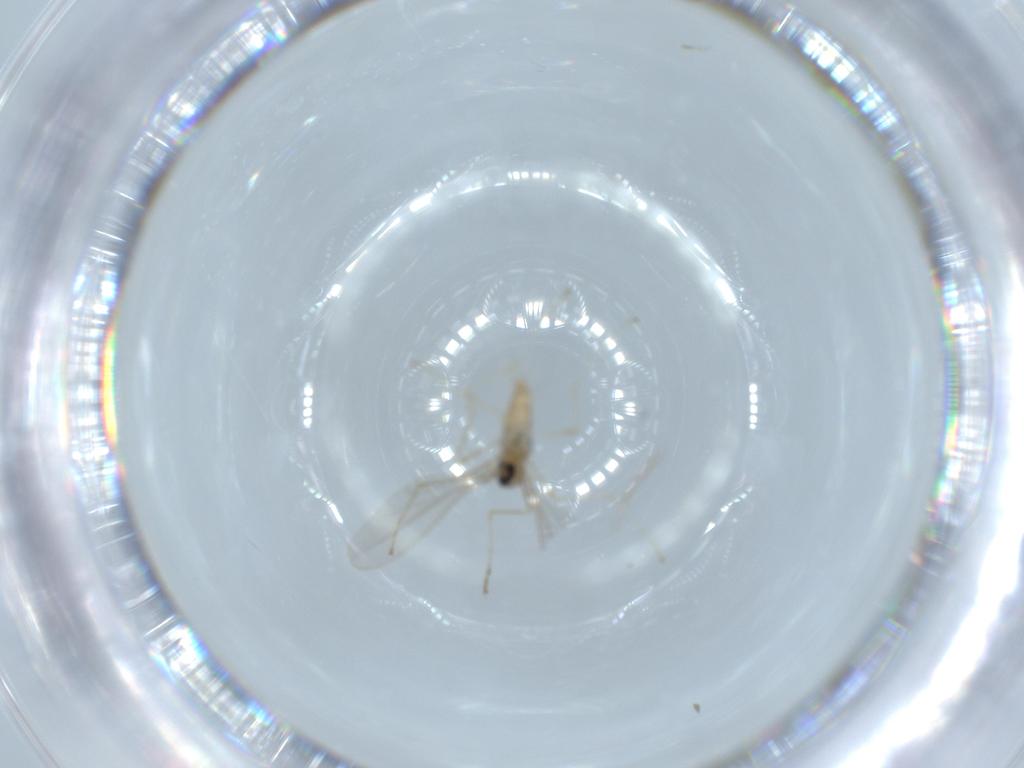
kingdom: Animalia
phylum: Arthropoda
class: Insecta
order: Diptera
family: Cecidomyiidae
